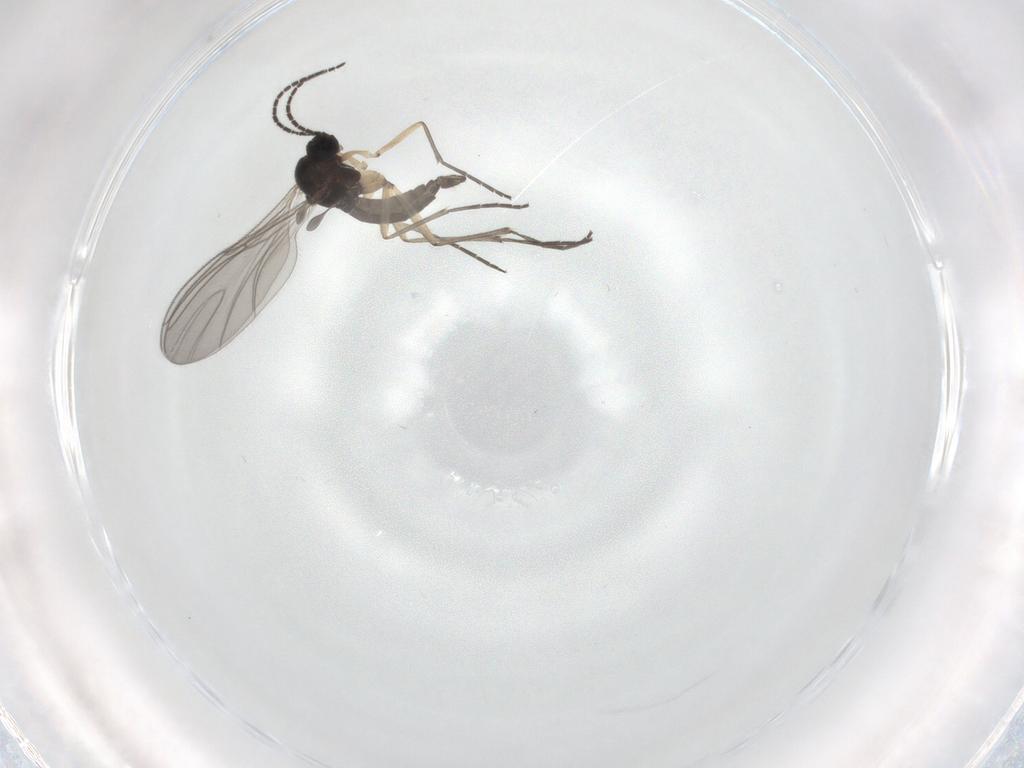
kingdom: Animalia
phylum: Arthropoda
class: Insecta
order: Diptera
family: Sciaridae
